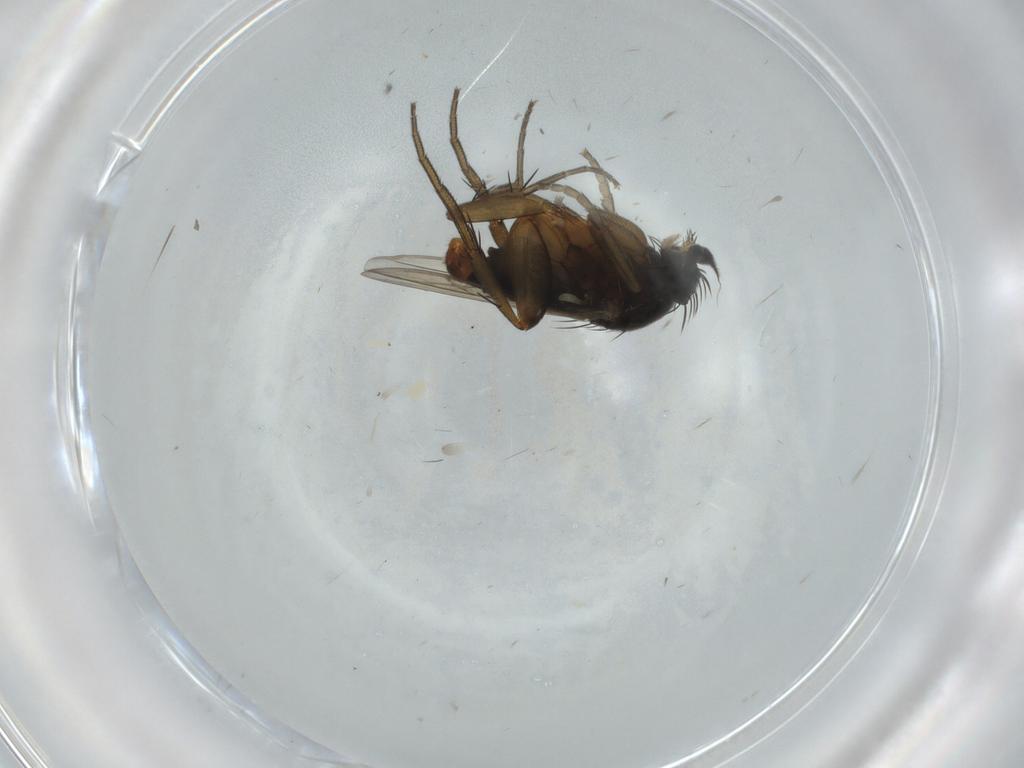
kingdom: Animalia
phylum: Arthropoda
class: Insecta
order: Diptera
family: Phoridae
